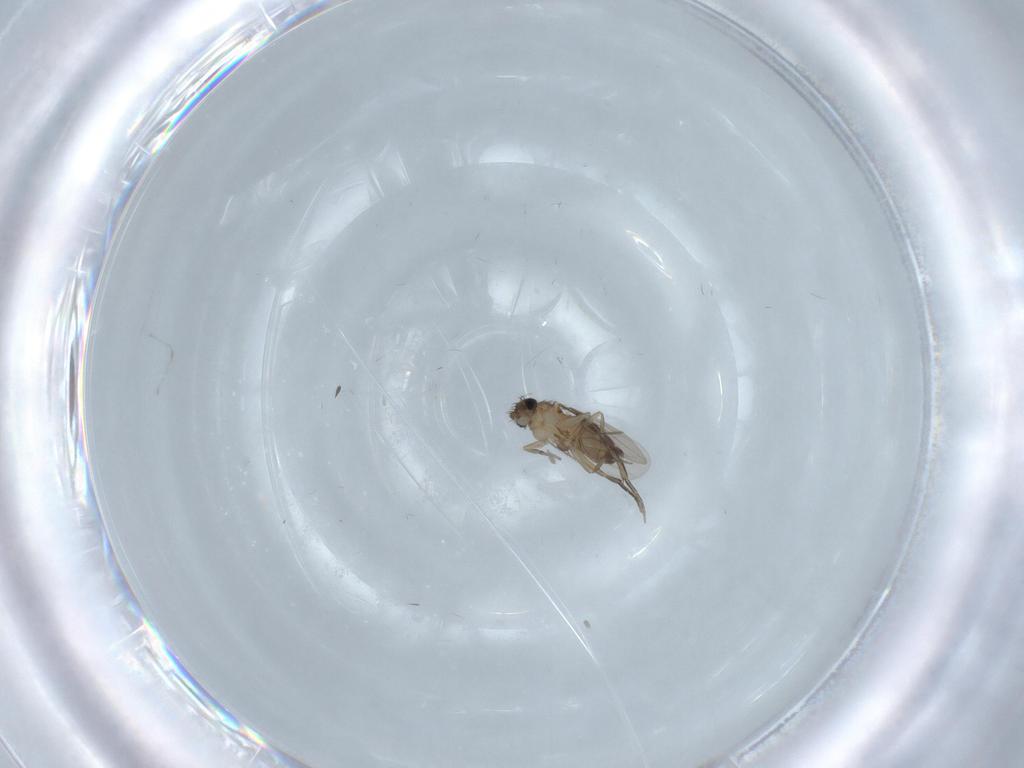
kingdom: Animalia
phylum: Arthropoda
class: Insecta
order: Diptera
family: Phoridae
